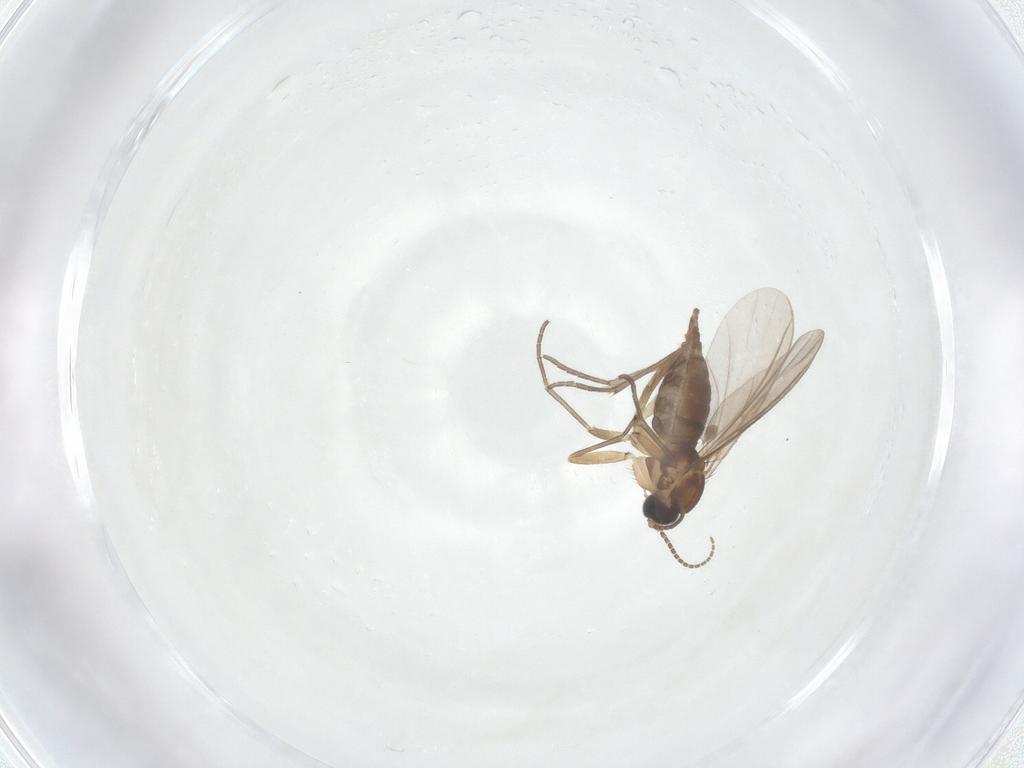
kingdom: Animalia
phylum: Arthropoda
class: Insecta
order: Diptera
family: Sciaridae
